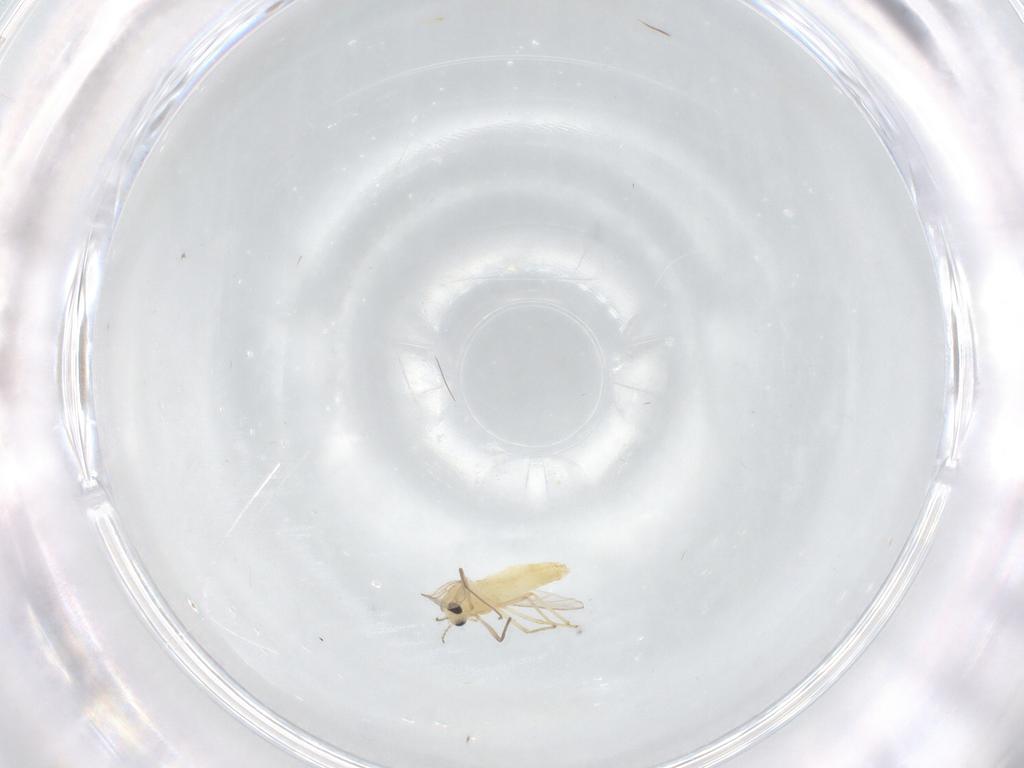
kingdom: Animalia
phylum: Arthropoda
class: Insecta
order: Diptera
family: Chironomidae
